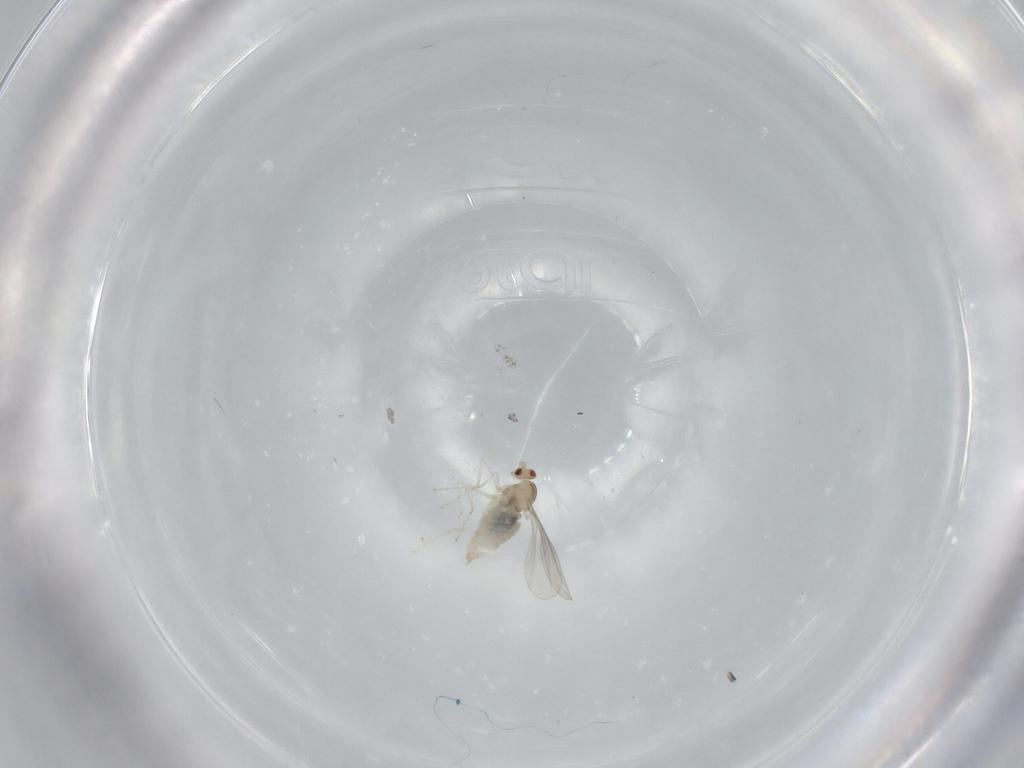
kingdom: Animalia
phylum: Arthropoda
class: Insecta
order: Diptera
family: Cecidomyiidae
